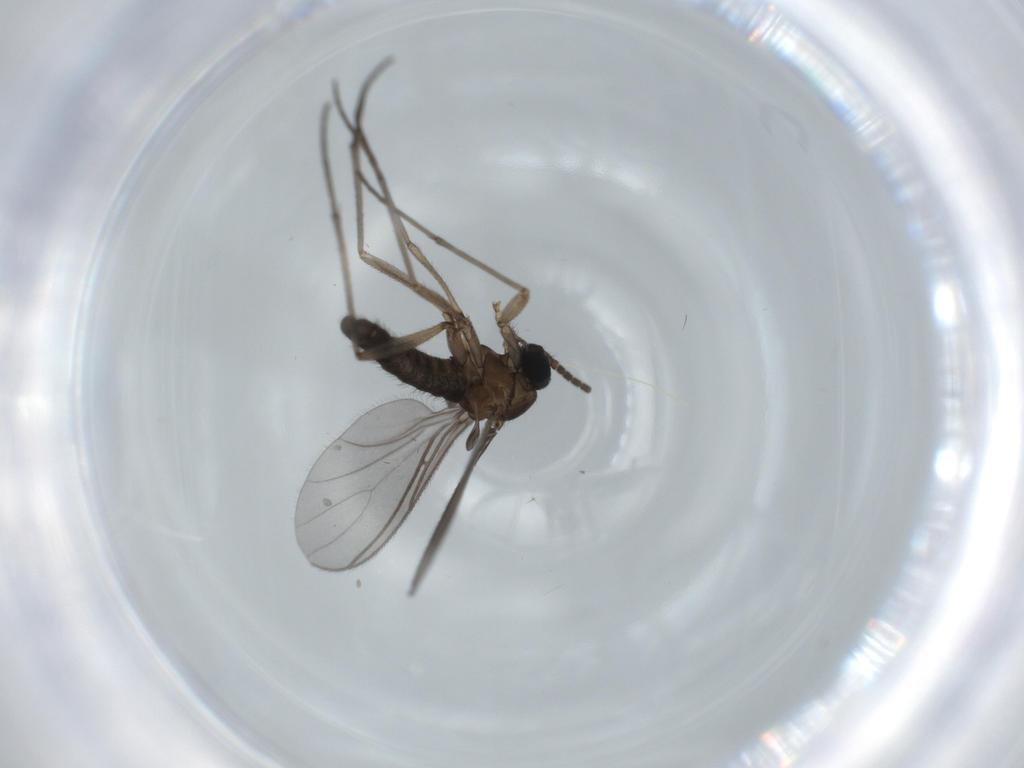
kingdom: Animalia
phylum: Arthropoda
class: Insecta
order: Diptera
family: Sciaridae
